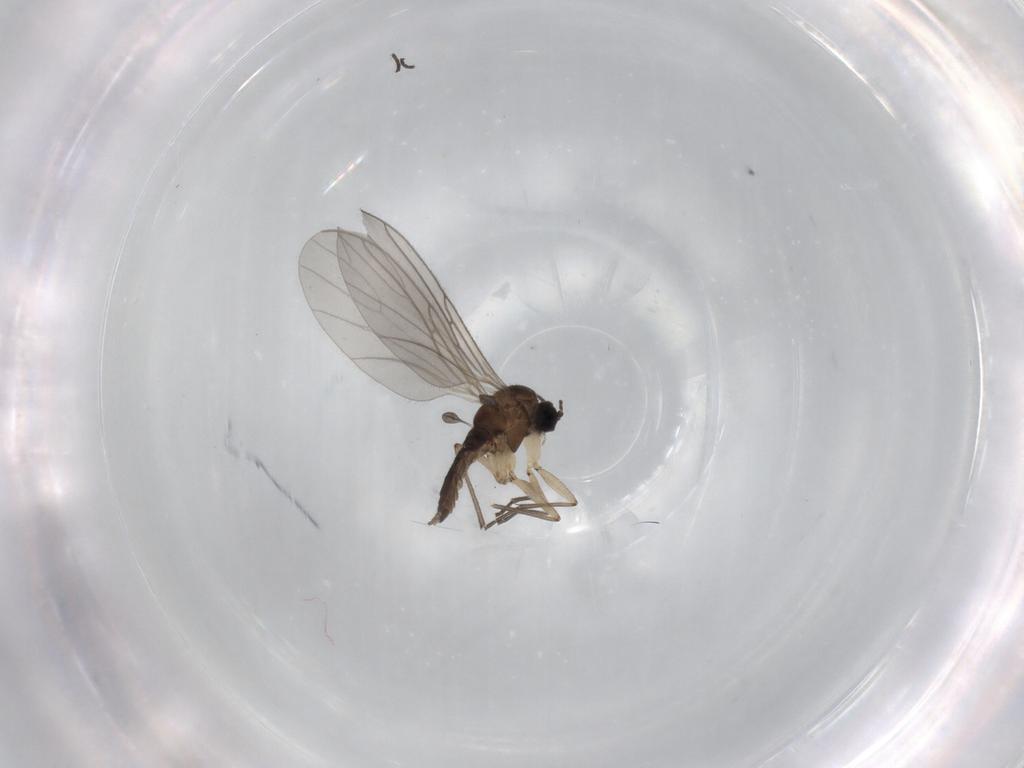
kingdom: Animalia
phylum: Arthropoda
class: Insecta
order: Diptera
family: Sciaridae
